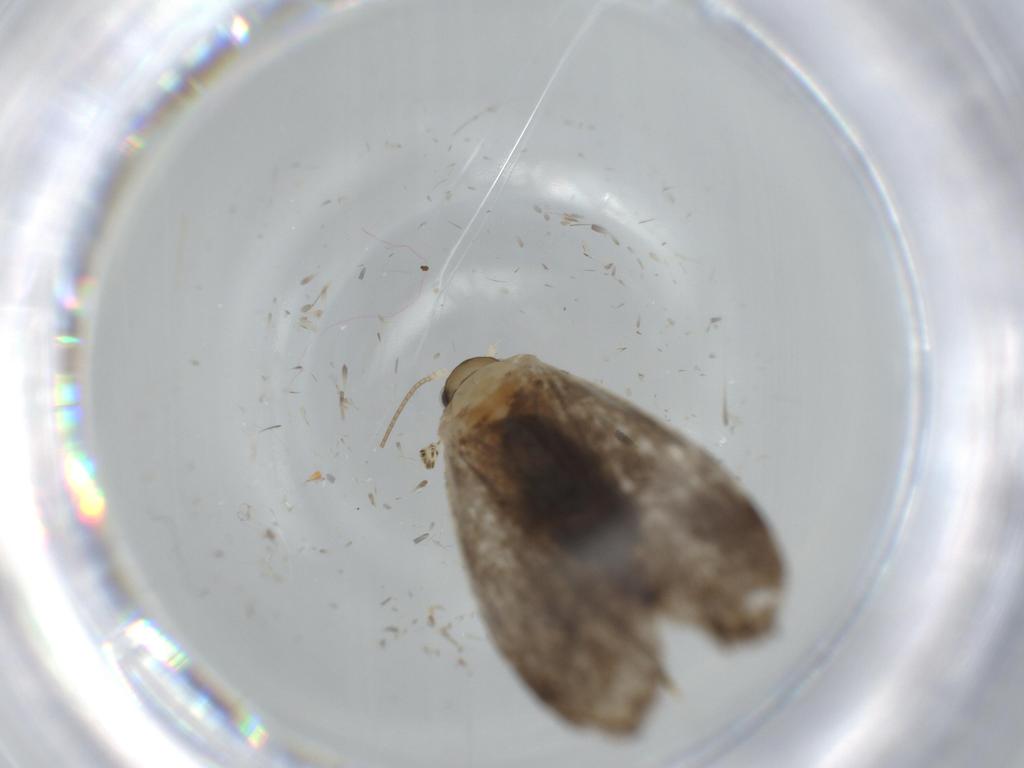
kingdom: Animalia
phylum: Arthropoda
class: Insecta
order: Lepidoptera
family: Tineidae
